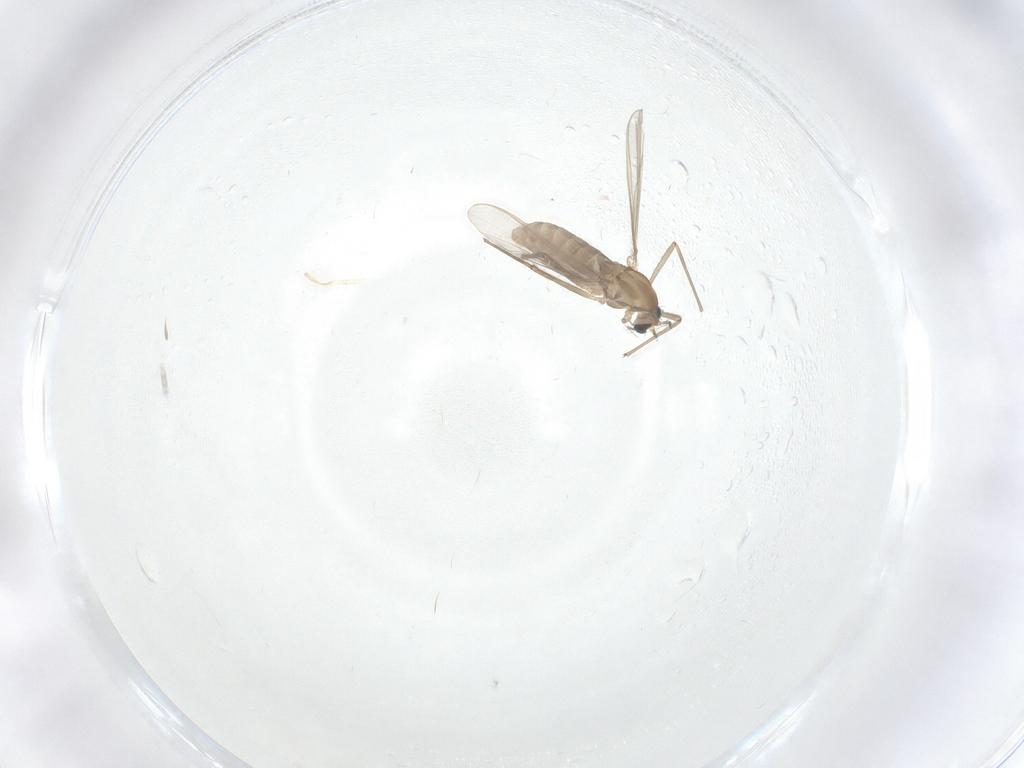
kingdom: Animalia
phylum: Arthropoda
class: Insecta
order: Diptera
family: Chironomidae
